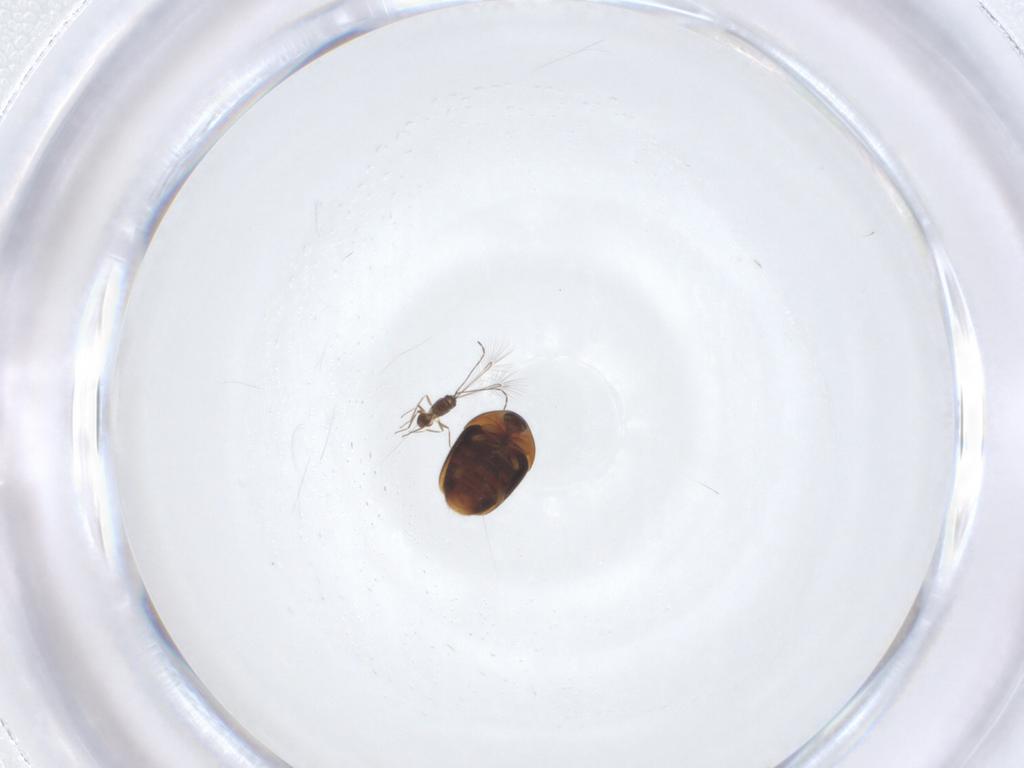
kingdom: Animalia
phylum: Arthropoda
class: Insecta
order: Coleoptera
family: Corylophidae
